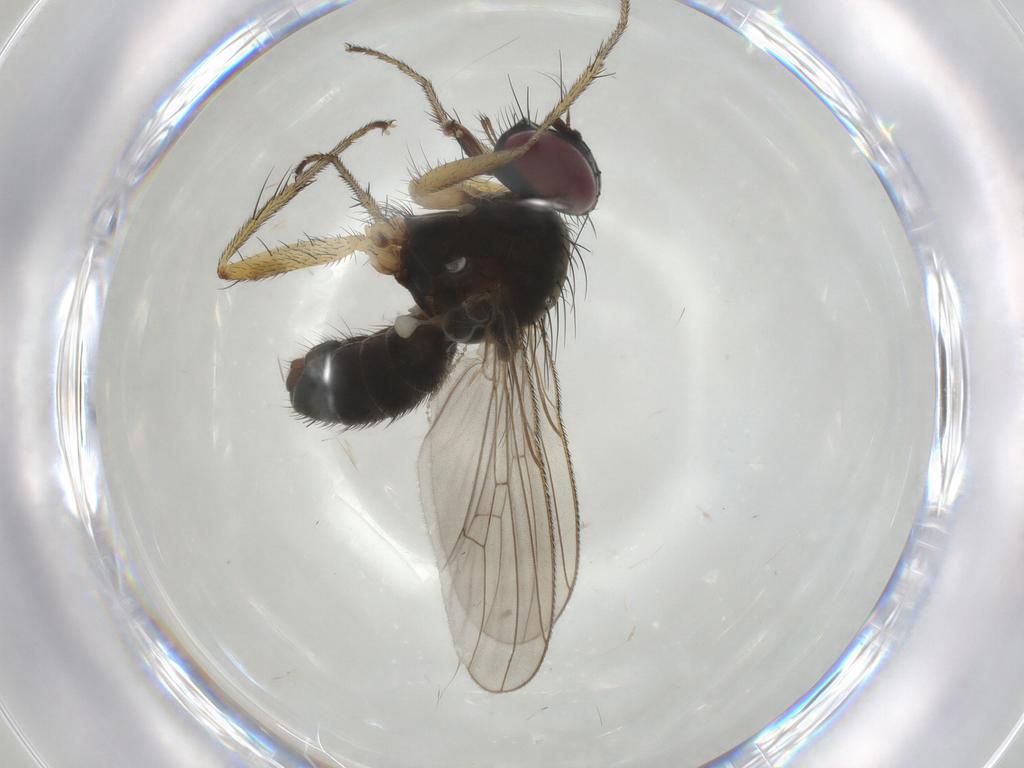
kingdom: Animalia
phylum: Arthropoda
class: Insecta
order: Diptera
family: Muscidae
